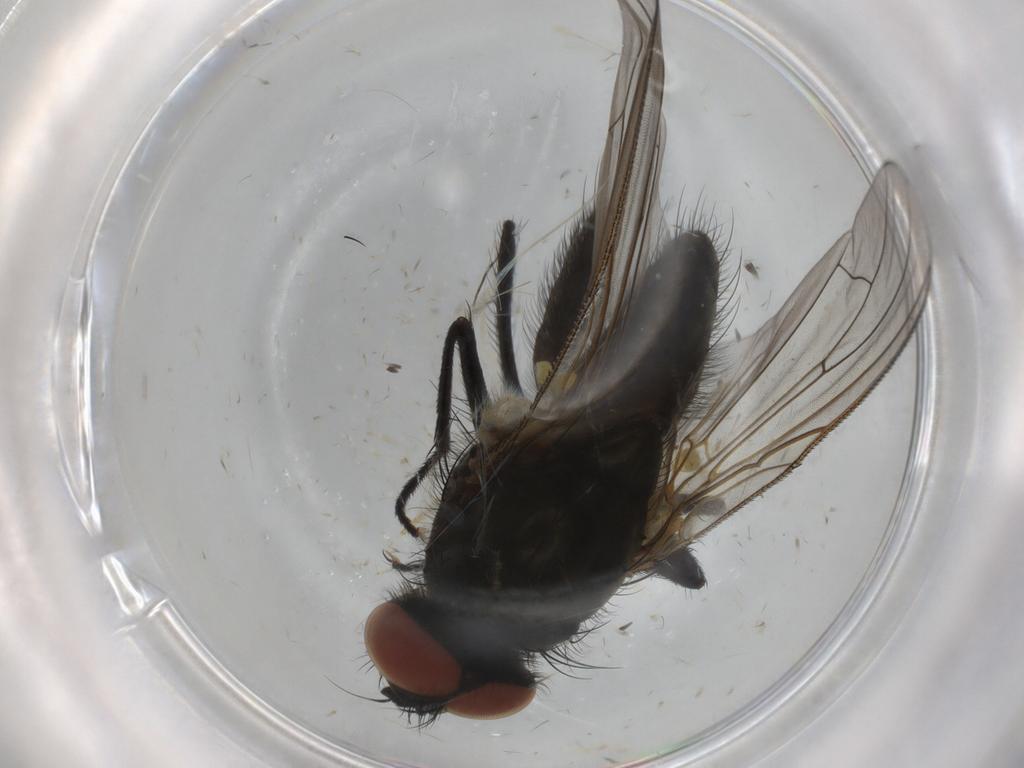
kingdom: Animalia
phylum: Arthropoda
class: Insecta
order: Diptera
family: Anthomyiidae
